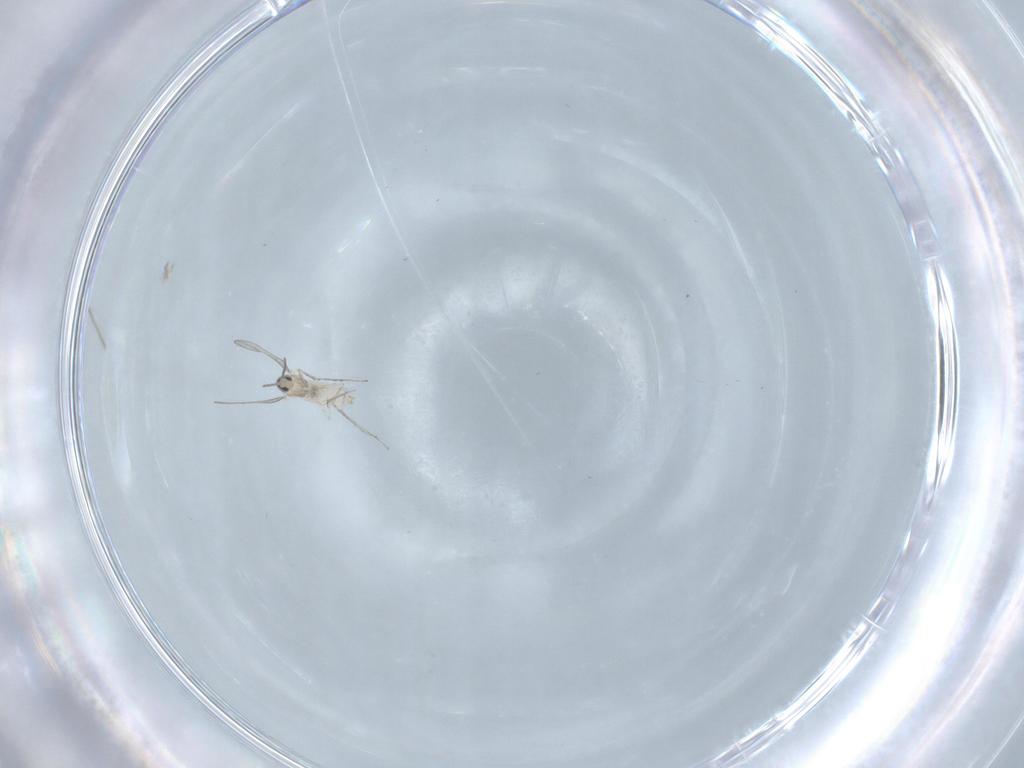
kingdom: Animalia
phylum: Arthropoda
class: Insecta
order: Diptera
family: Cecidomyiidae
